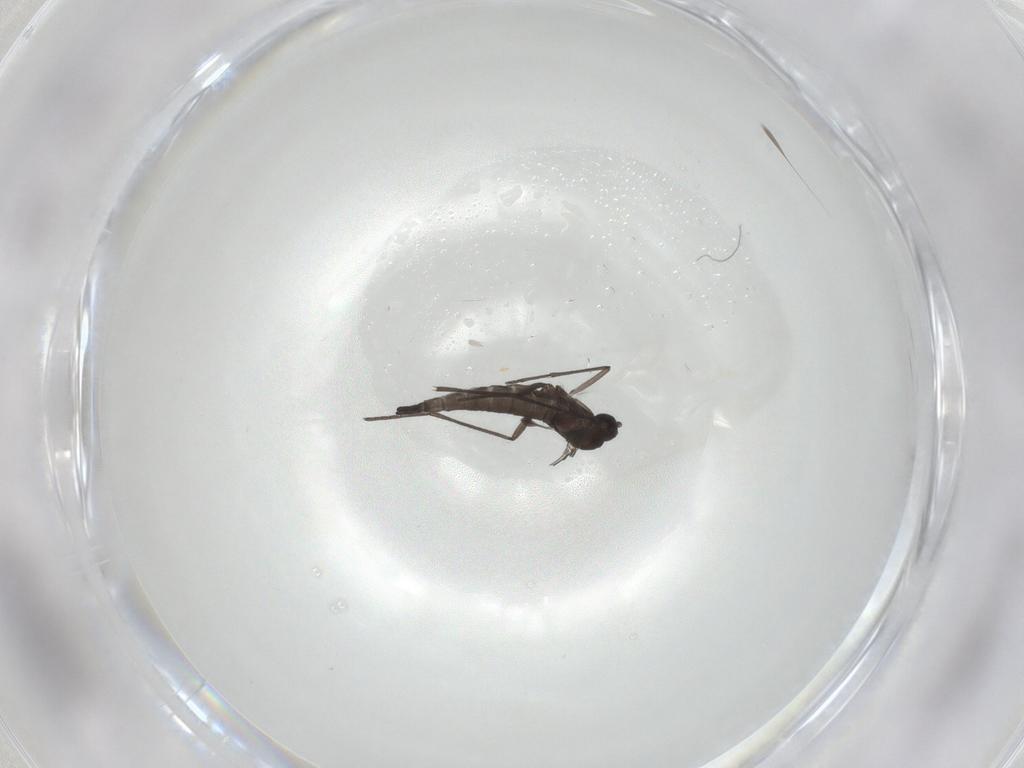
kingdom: Animalia
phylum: Arthropoda
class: Insecta
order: Diptera
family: Sciaridae
